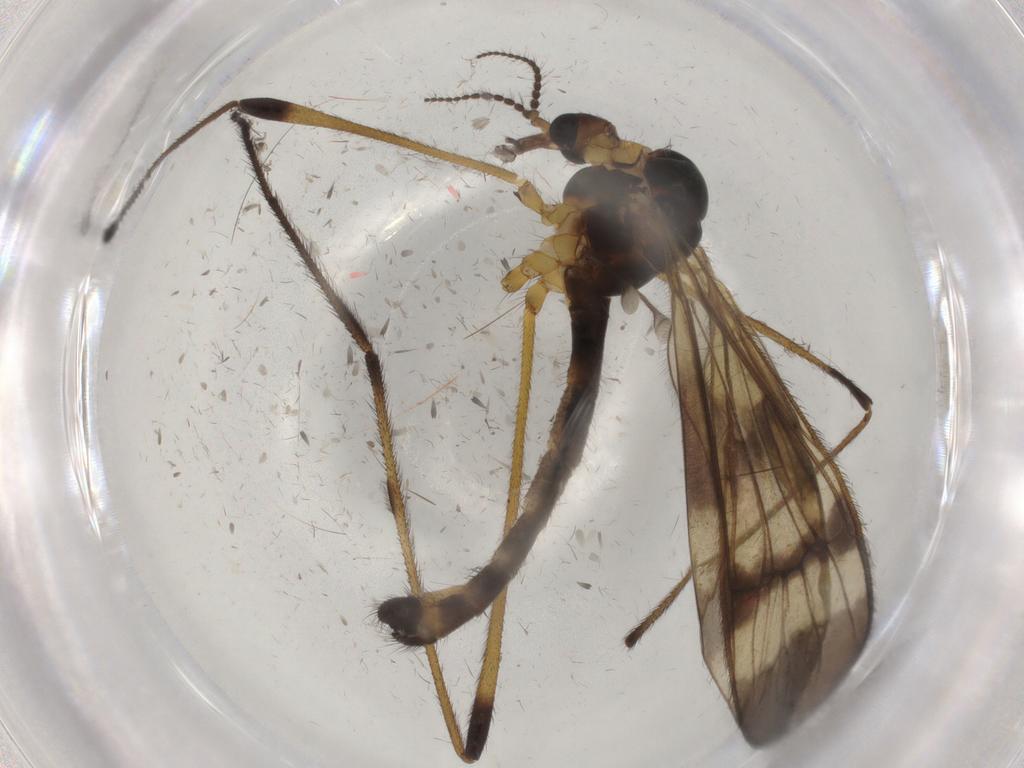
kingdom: Animalia
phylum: Arthropoda
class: Insecta
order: Diptera
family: Limoniidae
